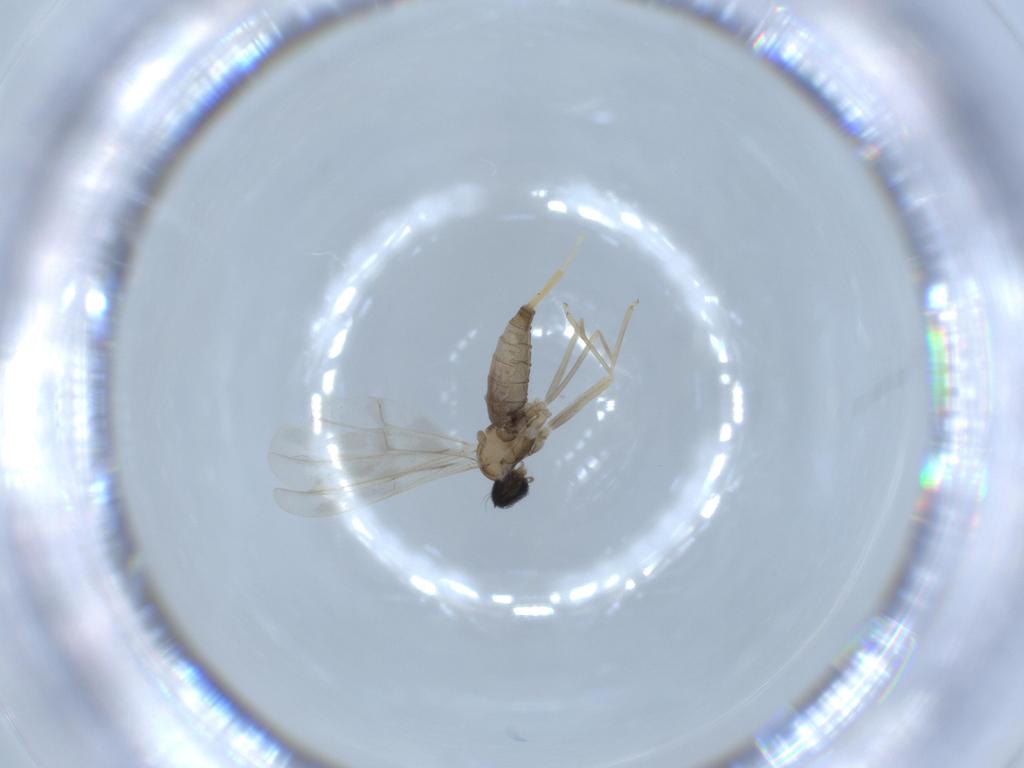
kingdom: Animalia
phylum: Arthropoda
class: Insecta
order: Diptera
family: Cecidomyiidae
